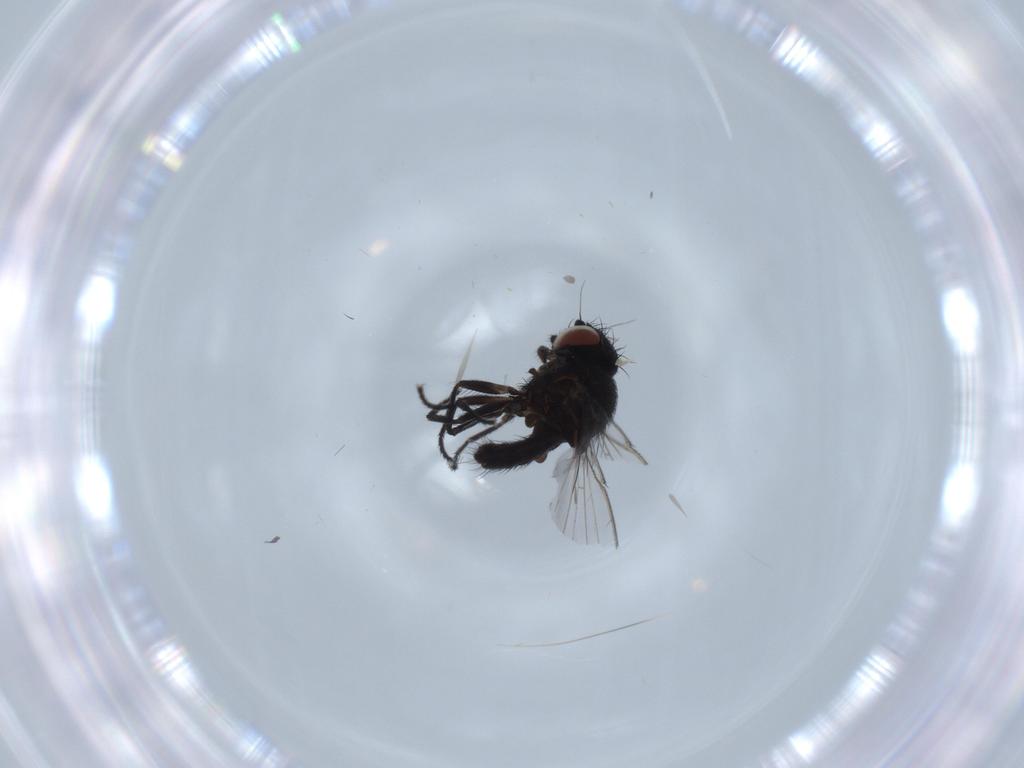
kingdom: Animalia
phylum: Arthropoda
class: Insecta
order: Diptera
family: Milichiidae
